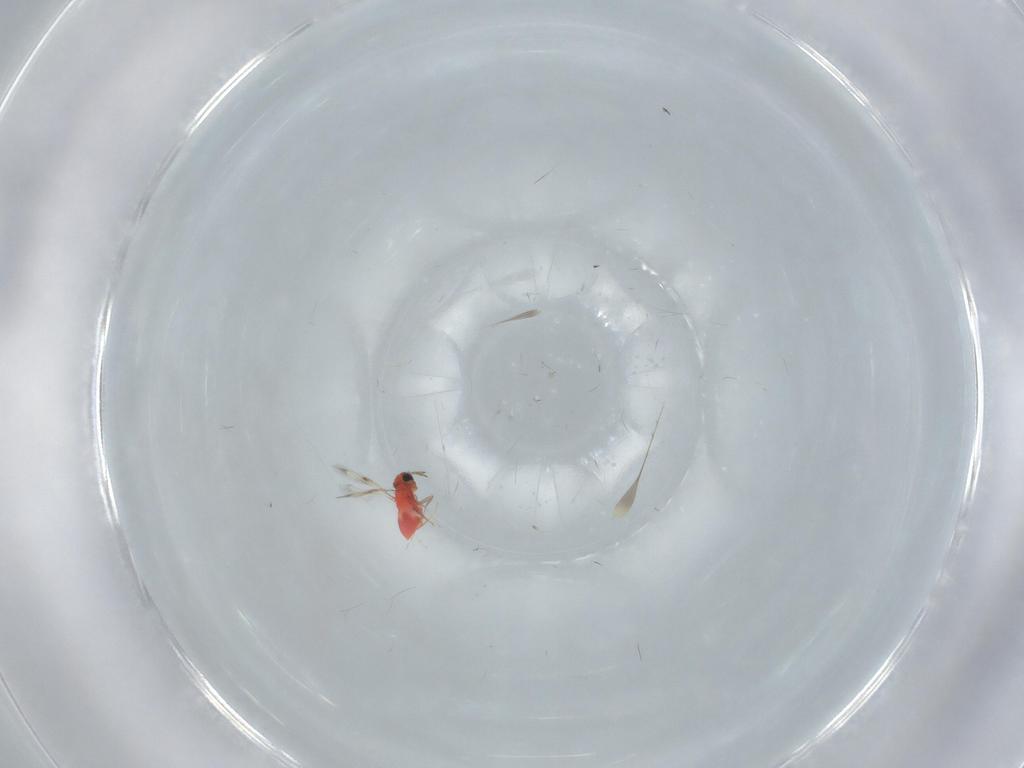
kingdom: Animalia
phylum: Arthropoda
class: Insecta
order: Hymenoptera
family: Trichogrammatidae
